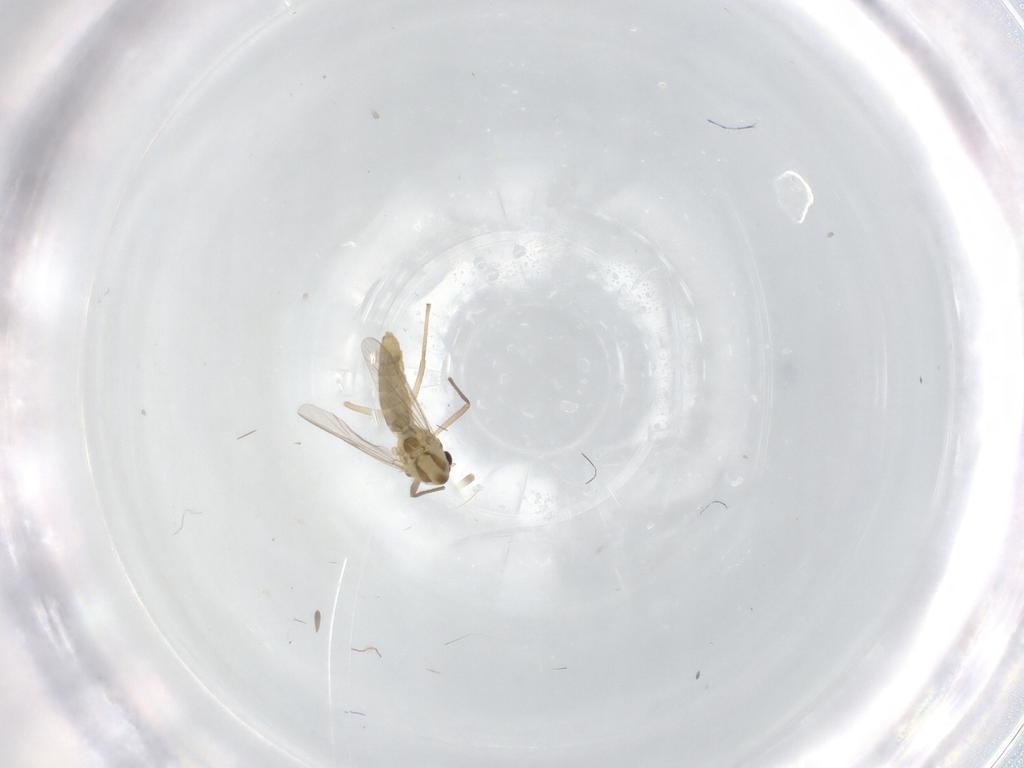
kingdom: Animalia
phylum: Arthropoda
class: Insecta
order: Diptera
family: Chironomidae
